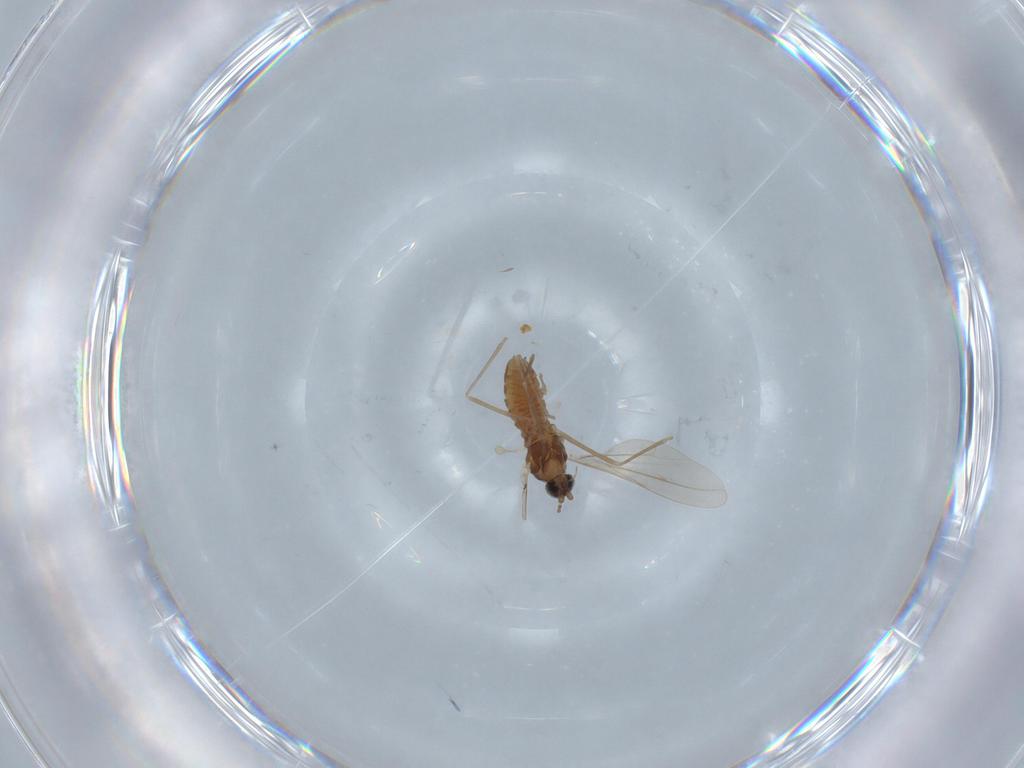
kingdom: Animalia
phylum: Arthropoda
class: Insecta
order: Diptera
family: Cecidomyiidae
